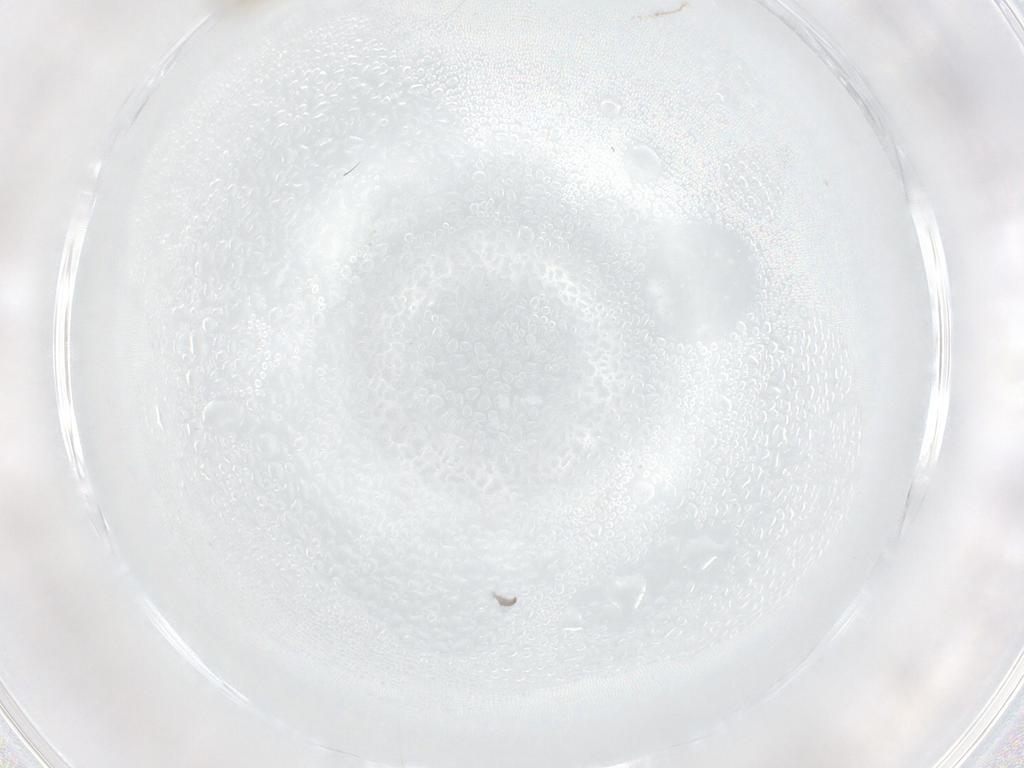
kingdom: Animalia
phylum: Arthropoda
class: Insecta
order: Diptera
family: Cecidomyiidae
